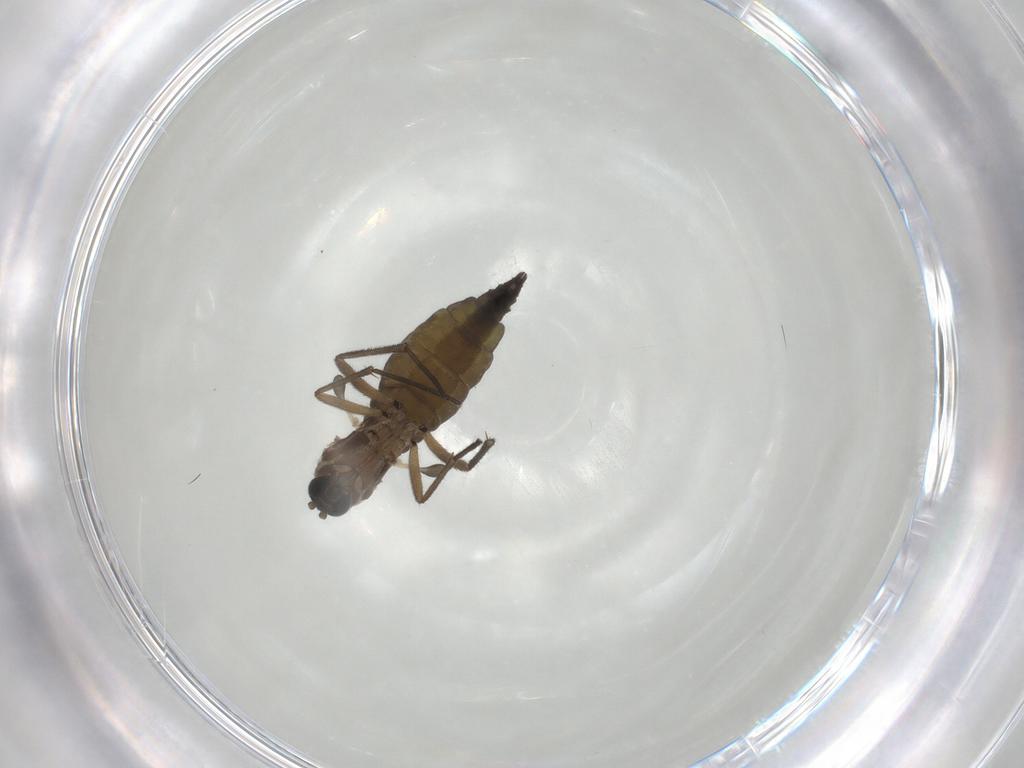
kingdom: Animalia
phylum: Arthropoda
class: Insecta
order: Diptera
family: Sciaridae
